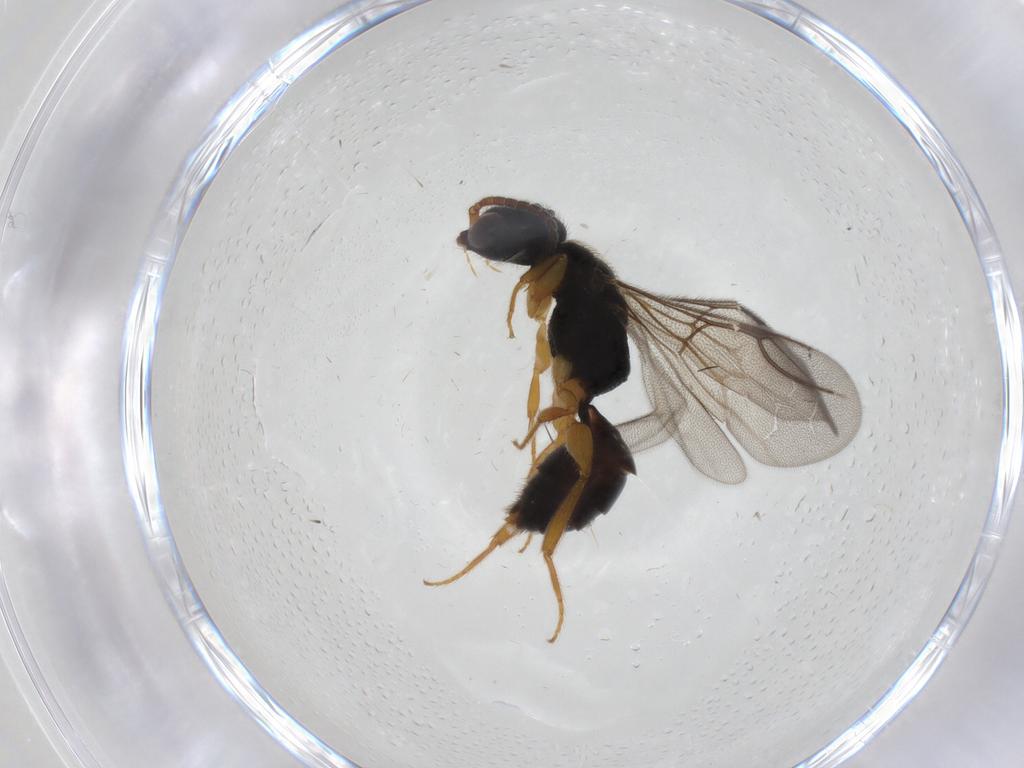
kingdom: Animalia
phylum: Arthropoda
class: Insecta
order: Hymenoptera
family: Bethylidae
